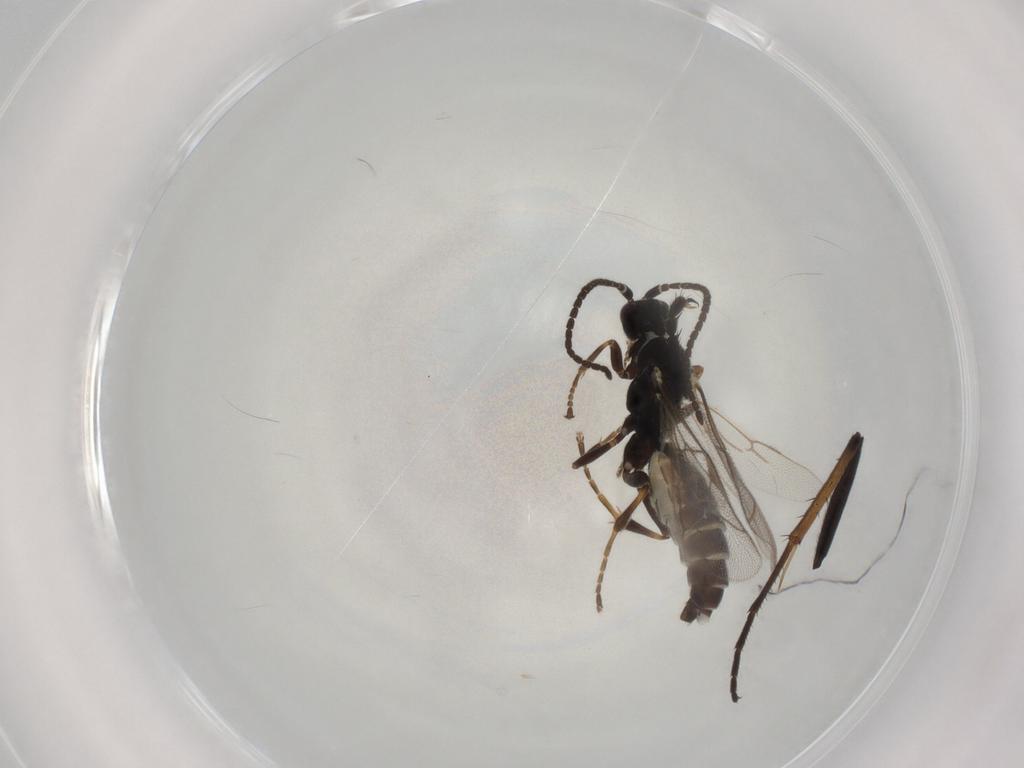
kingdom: Animalia
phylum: Arthropoda
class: Insecta
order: Hymenoptera
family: Ichneumonidae
